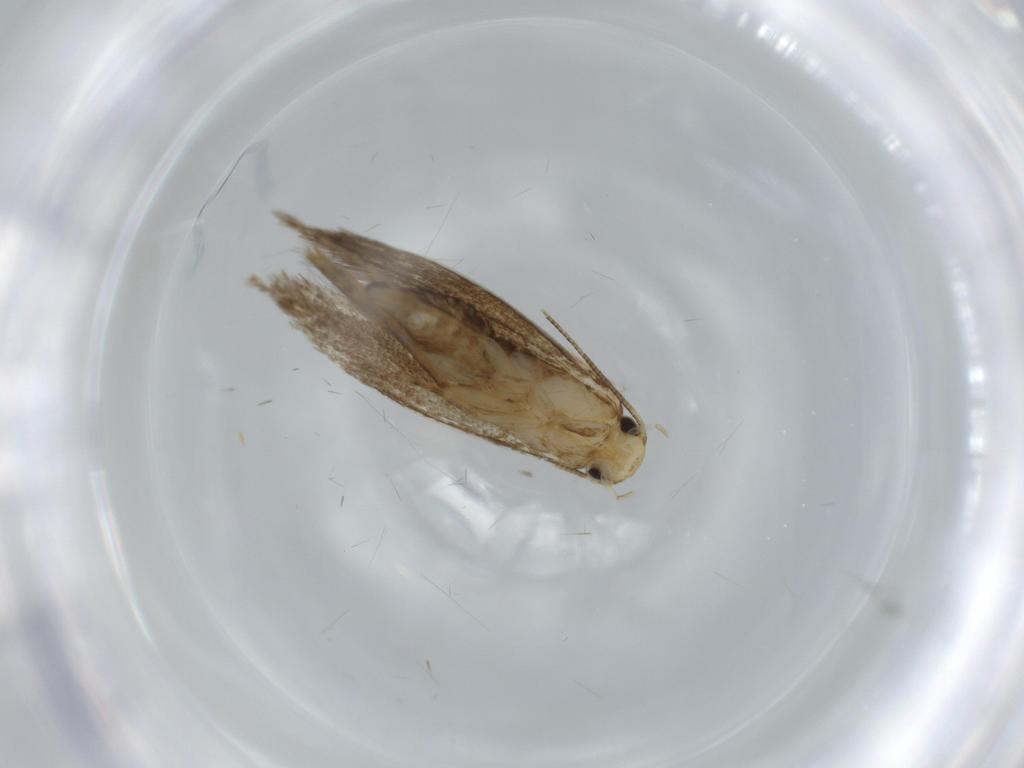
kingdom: Animalia
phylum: Arthropoda
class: Insecta
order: Lepidoptera
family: Tineidae
